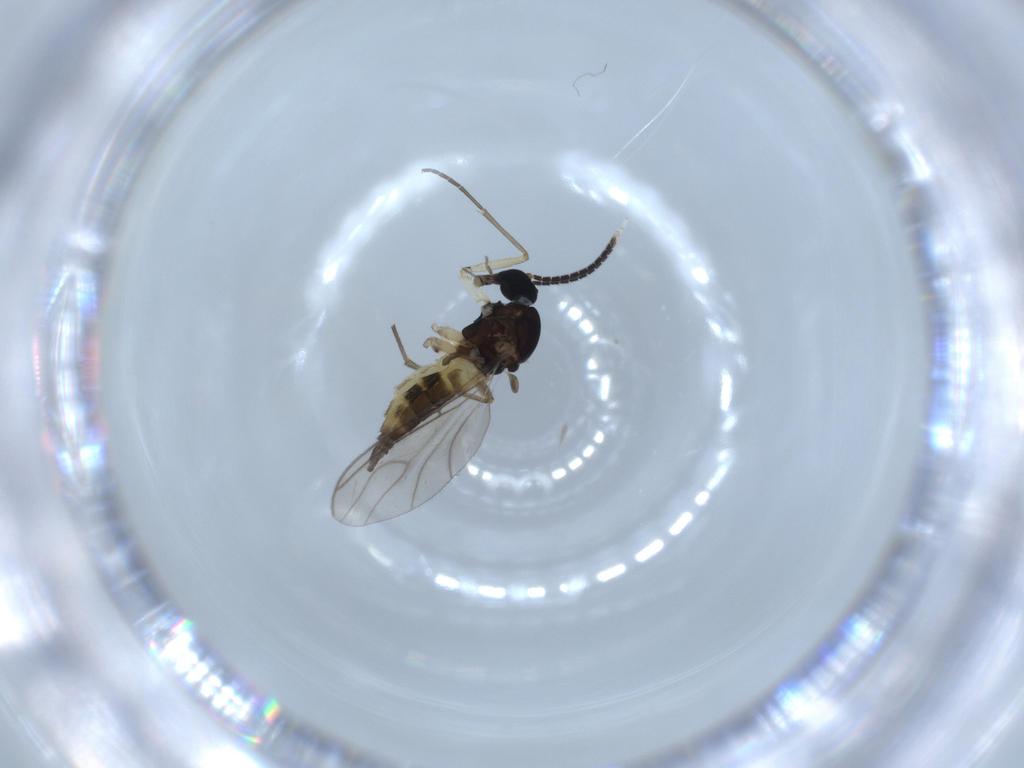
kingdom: Animalia
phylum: Arthropoda
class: Insecta
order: Diptera
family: Sciaridae
